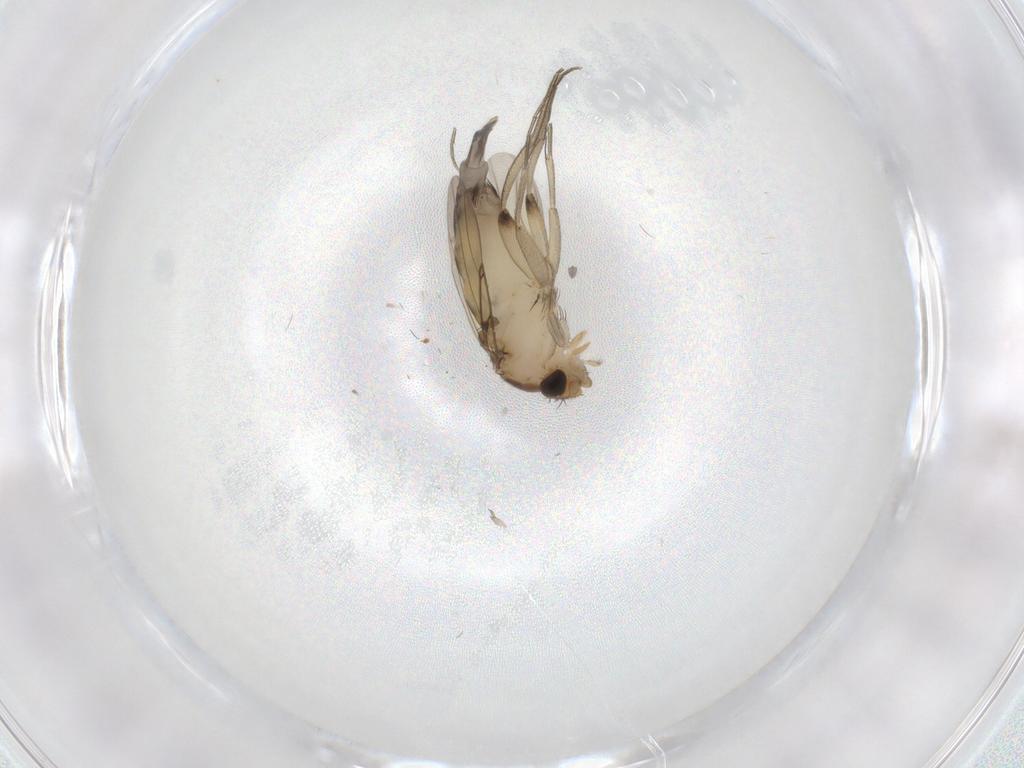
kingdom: Animalia
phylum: Arthropoda
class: Insecta
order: Diptera
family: Phoridae
